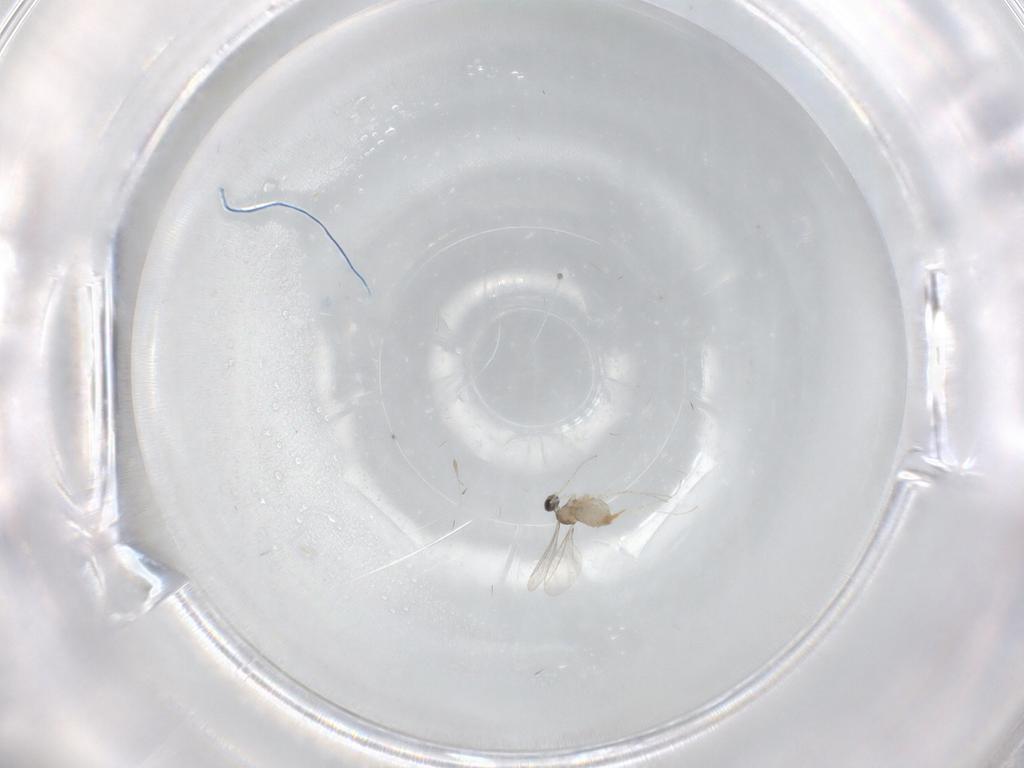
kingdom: Animalia
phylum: Arthropoda
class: Insecta
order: Diptera
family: Cecidomyiidae
